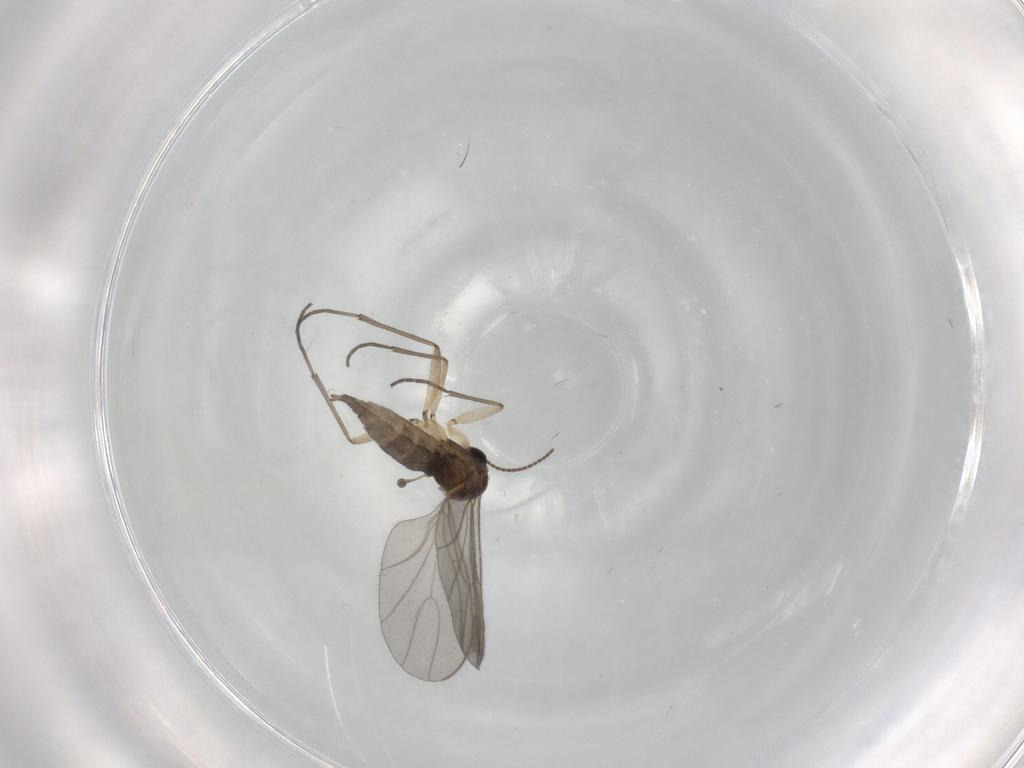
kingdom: Animalia
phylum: Arthropoda
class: Insecta
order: Diptera
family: Sciaridae
